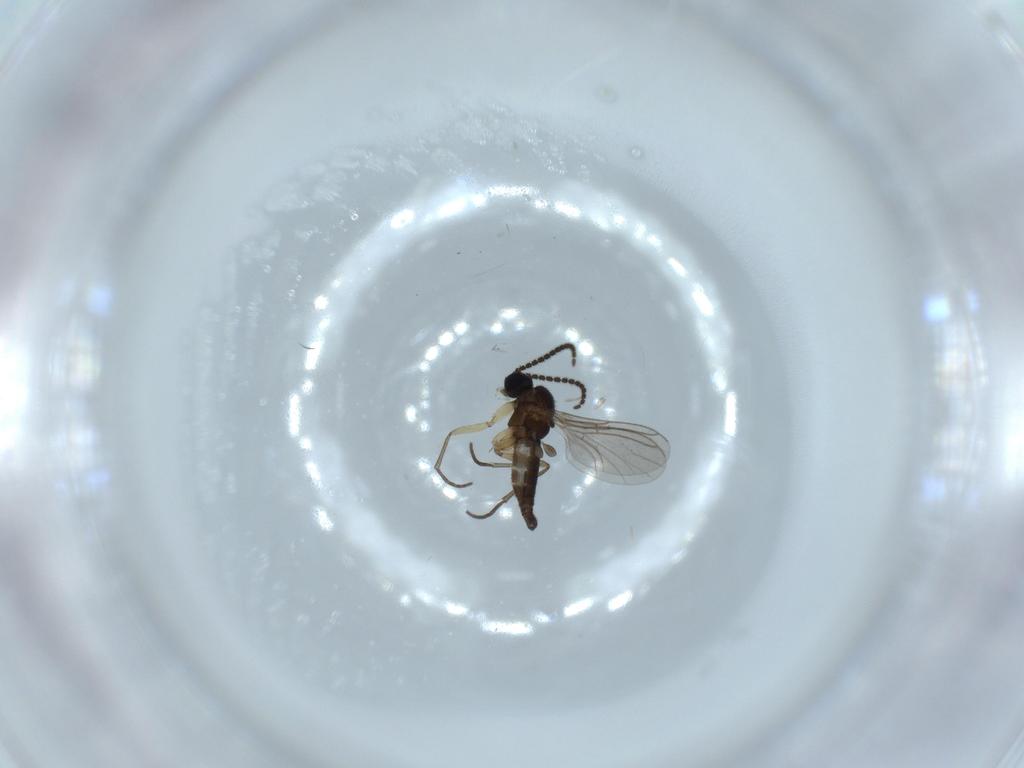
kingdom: Animalia
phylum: Arthropoda
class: Insecta
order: Diptera
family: Sciaridae
